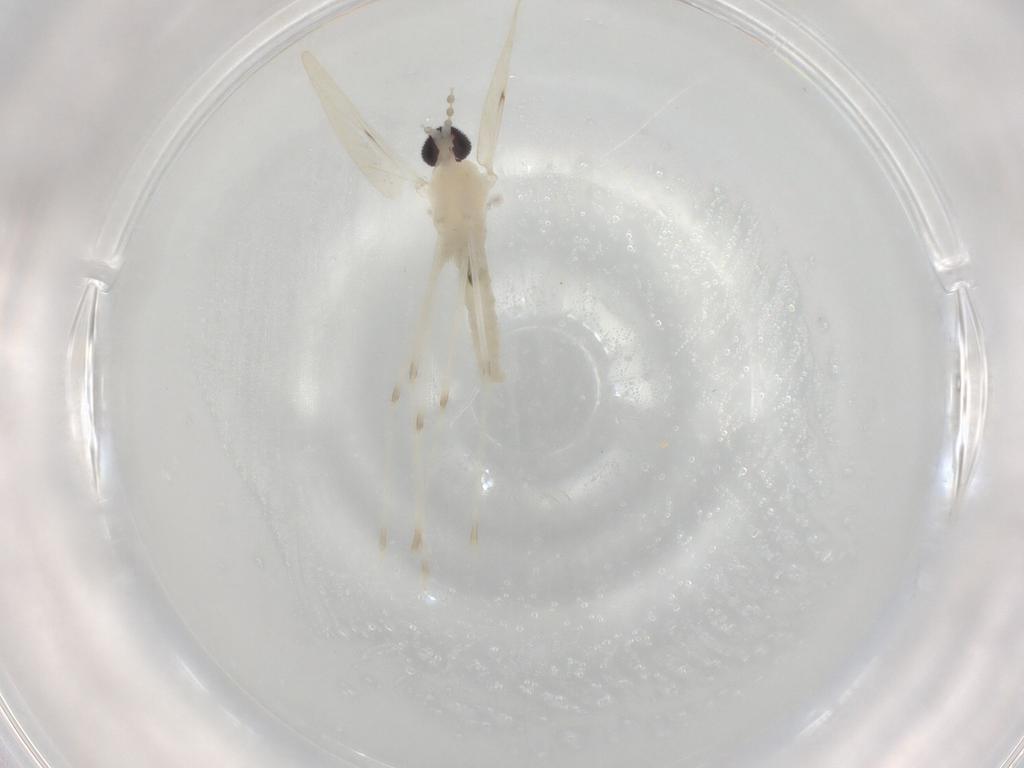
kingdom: Animalia
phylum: Arthropoda
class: Insecta
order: Diptera
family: Cecidomyiidae
